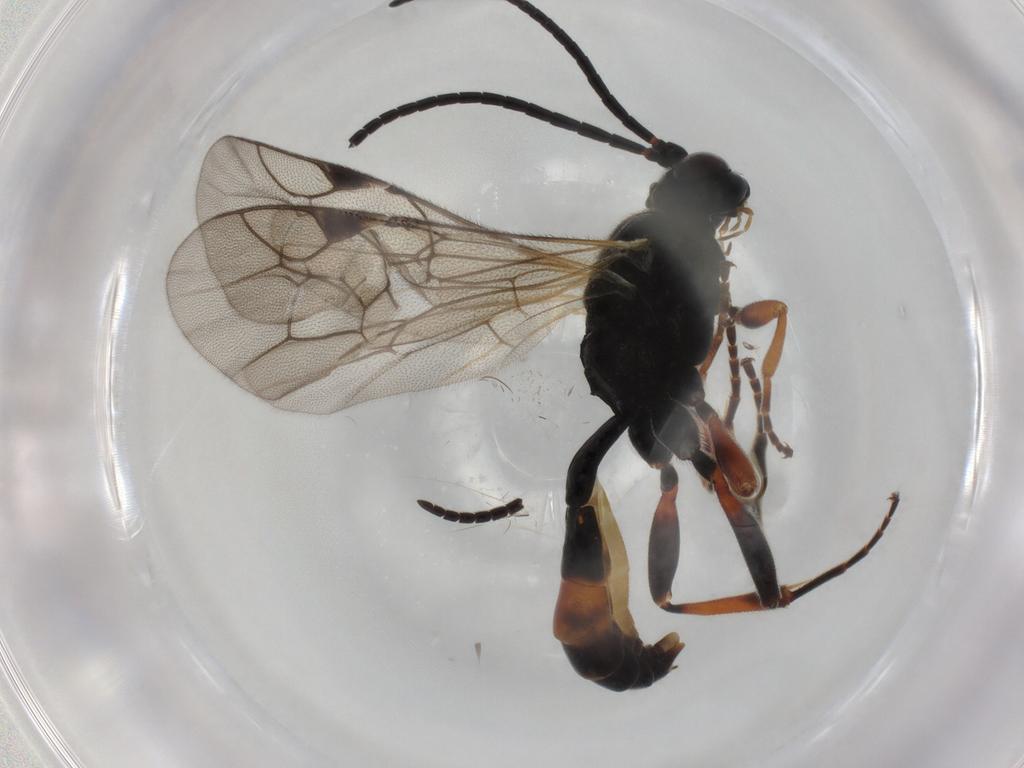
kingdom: Animalia
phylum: Arthropoda
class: Insecta
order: Hymenoptera
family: Ichneumonidae
